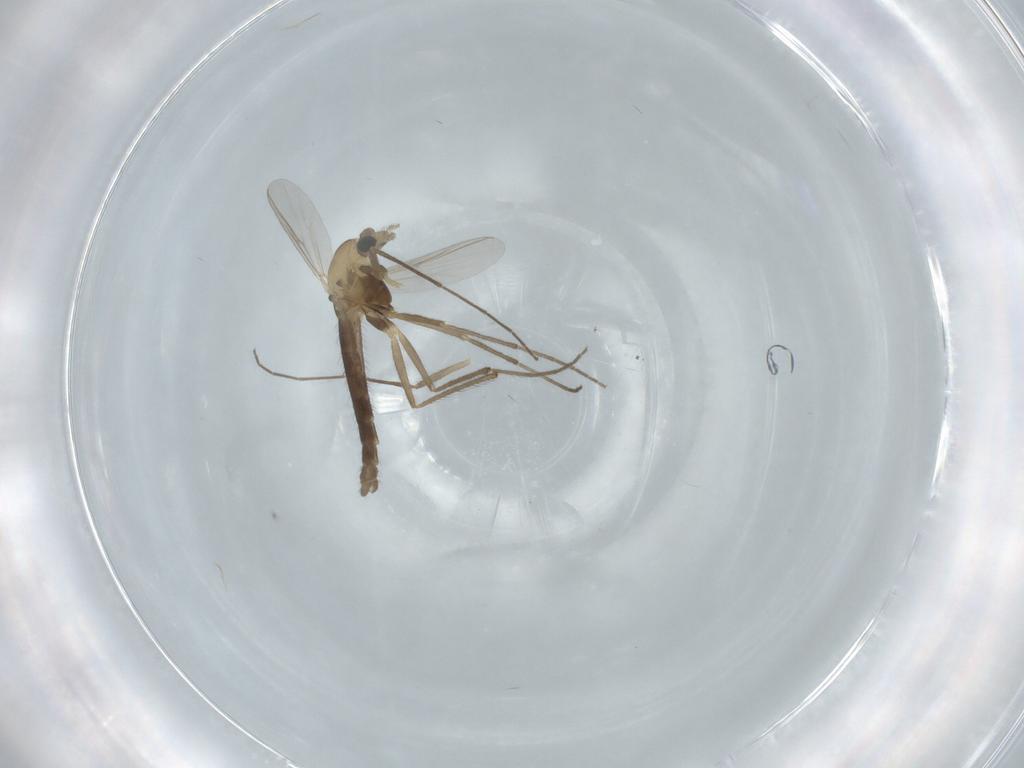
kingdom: Animalia
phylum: Arthropoda
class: Insecta
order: Diptera
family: Chironomidae
